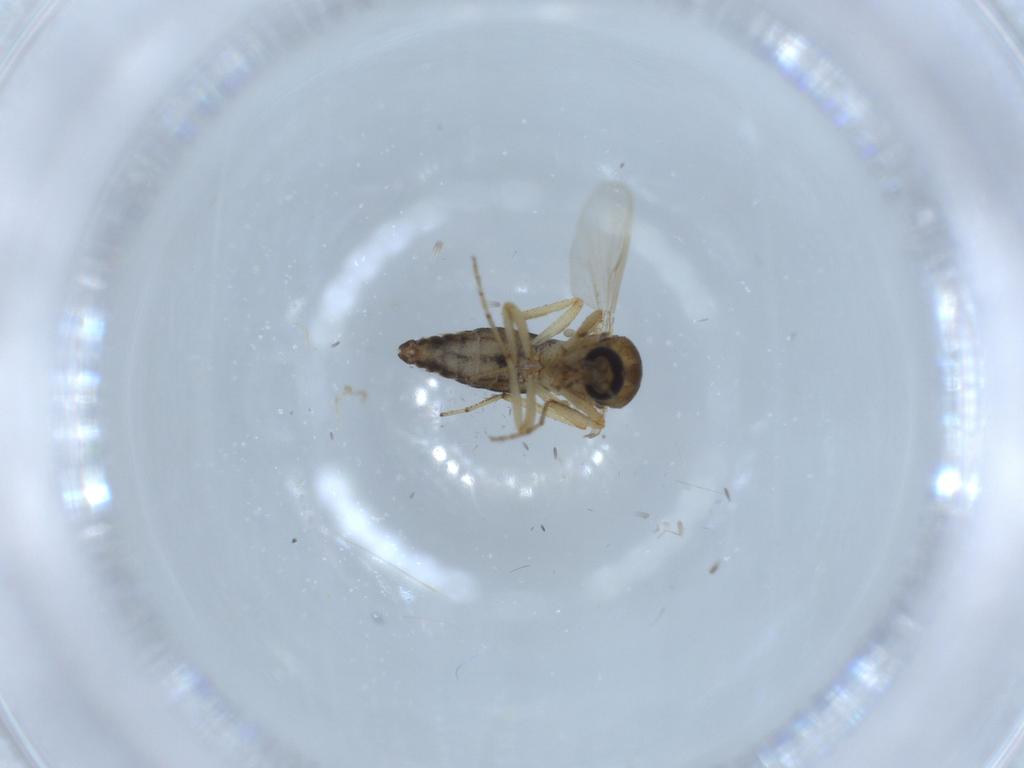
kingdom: Animalia
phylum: Arthropoda
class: Insecta
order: Diptera
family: Ceratopogonidae
